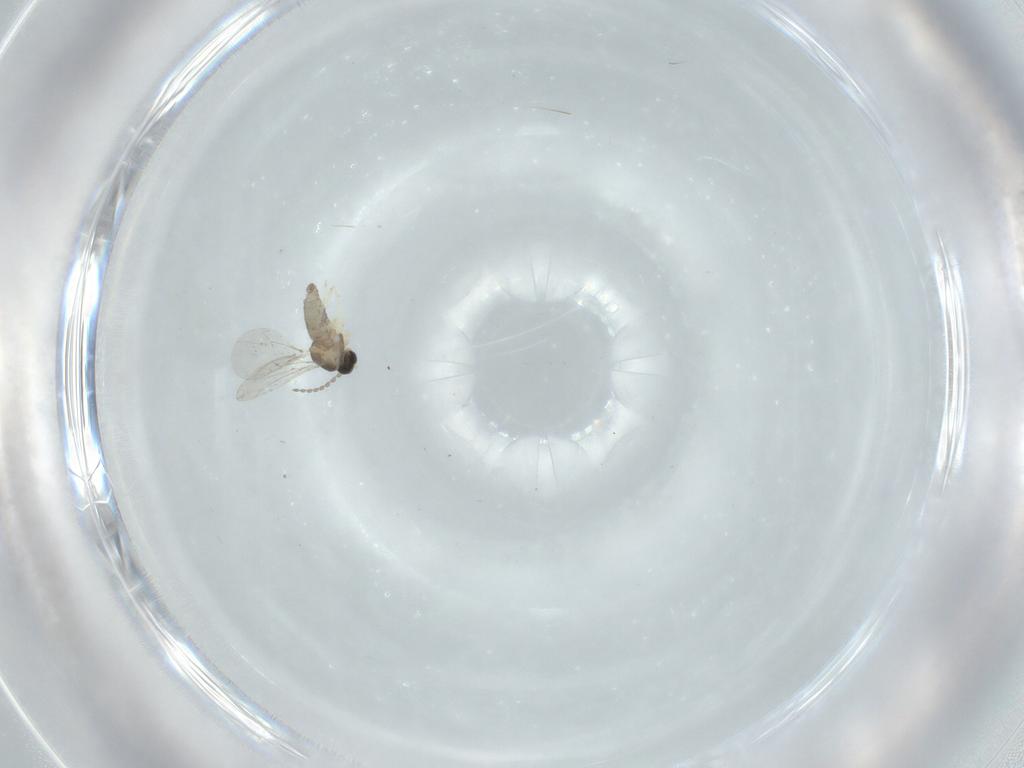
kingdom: Animalia
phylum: Arthropoda
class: Insecta
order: Diptera
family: Cecidomyiidae
